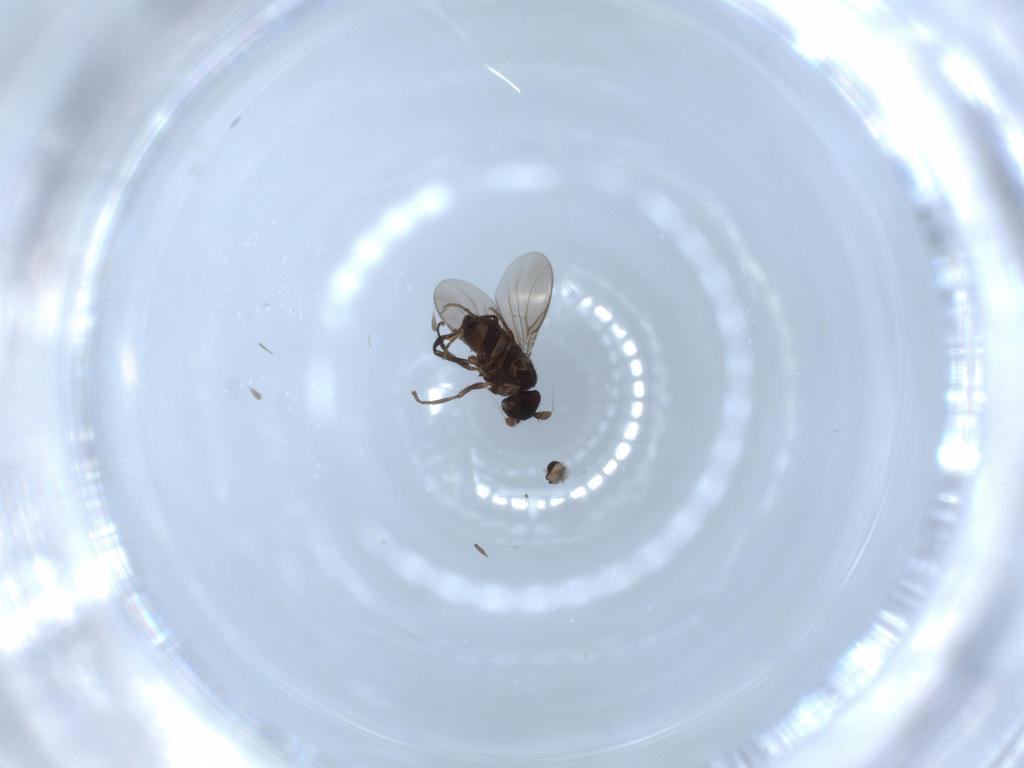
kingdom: Animalia
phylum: Arthropoda
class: Insecta
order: Diptera
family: Sphaeroceridae
